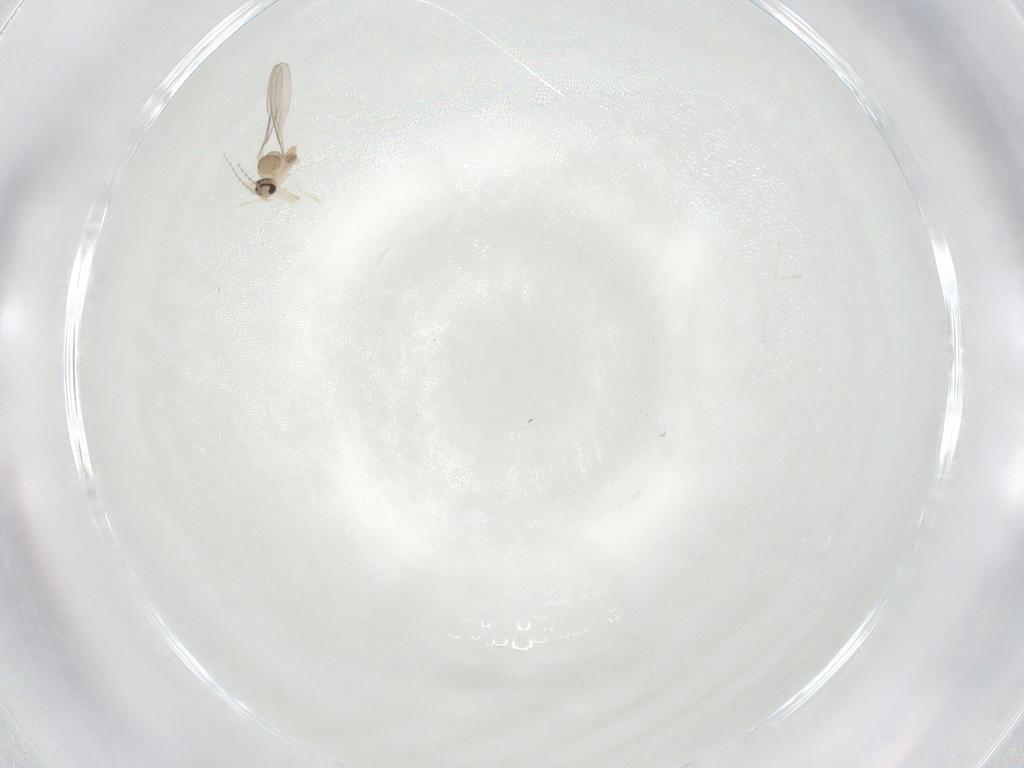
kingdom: Animalia
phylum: Arthropoda
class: Insecta
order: Diptera
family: Cecidomyiidae
